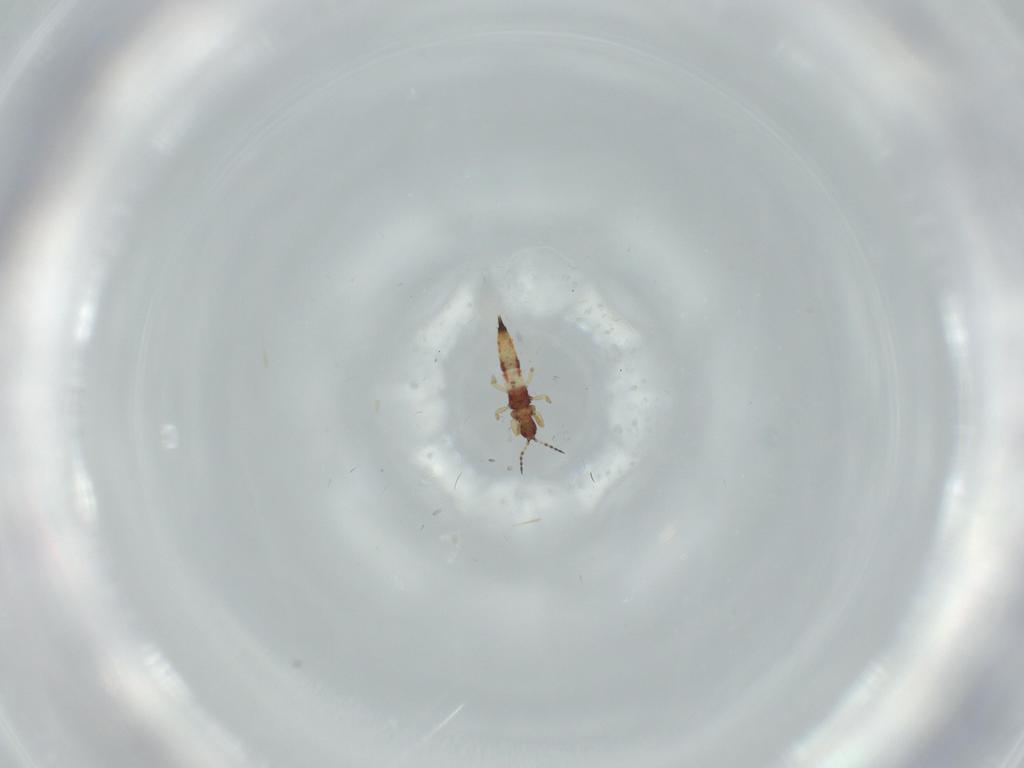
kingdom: Animalia
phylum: Arthropoda
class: Insecta
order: Thysanoptera
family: Phlaeothripidae
